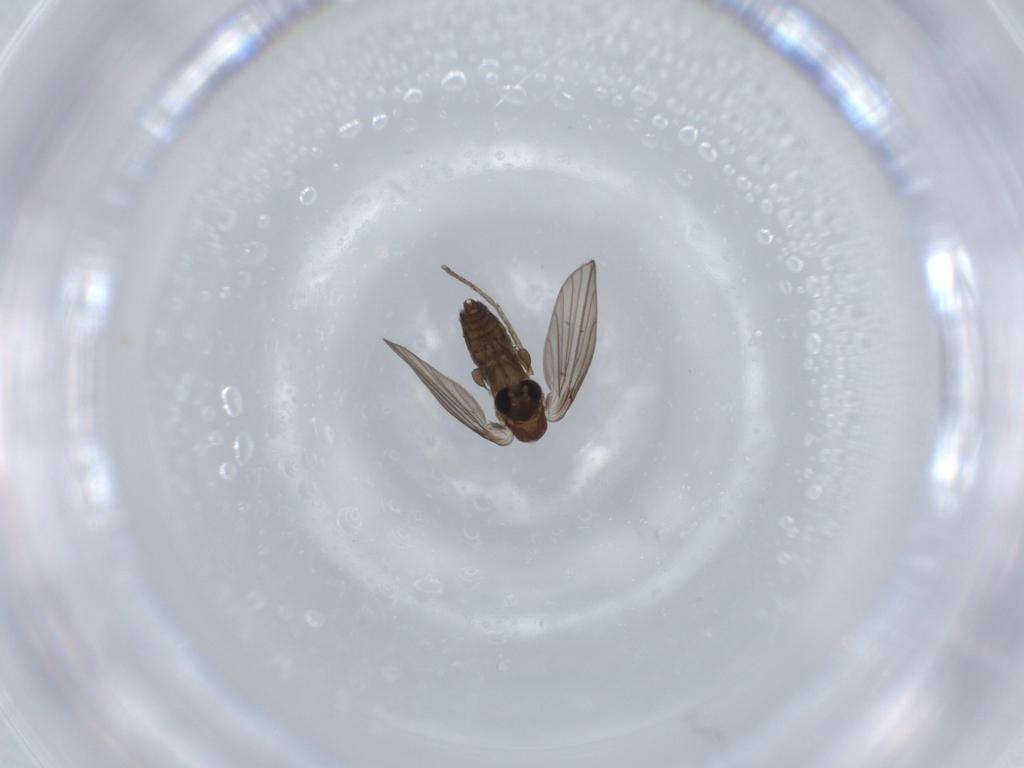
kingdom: Animalia
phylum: Arthropoda
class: Insecta
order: Diptera
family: Psychodidae
